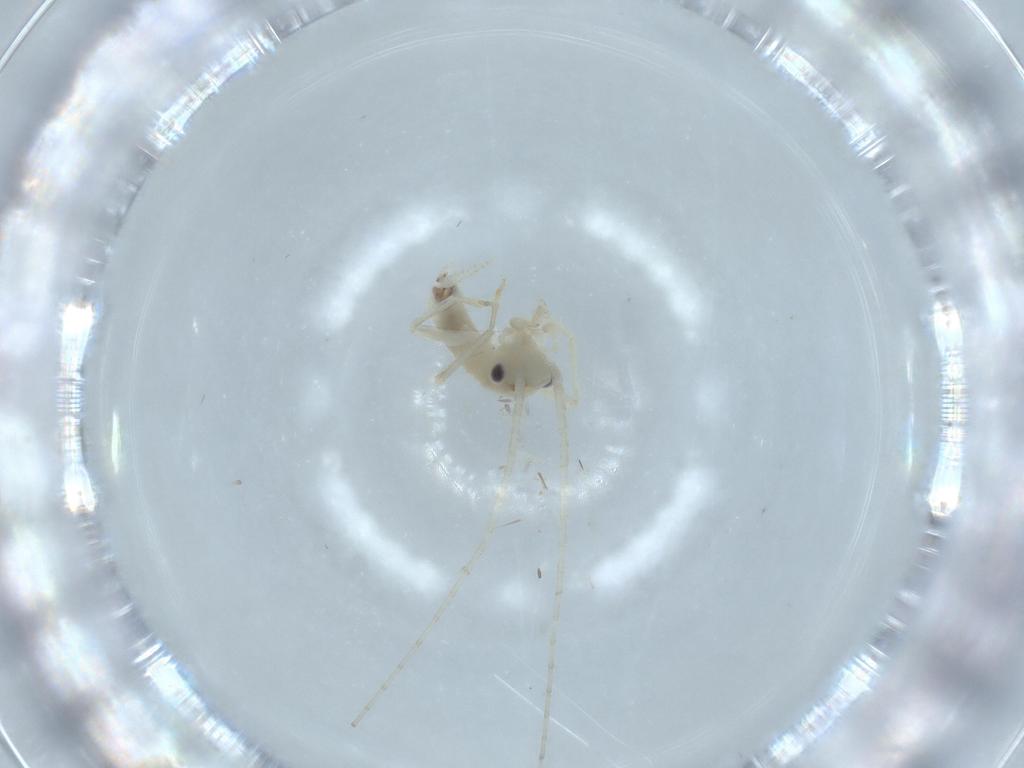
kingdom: Animalia
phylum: Arthropoda
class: Insecta
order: Orthoptera
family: Trigonidiidae
